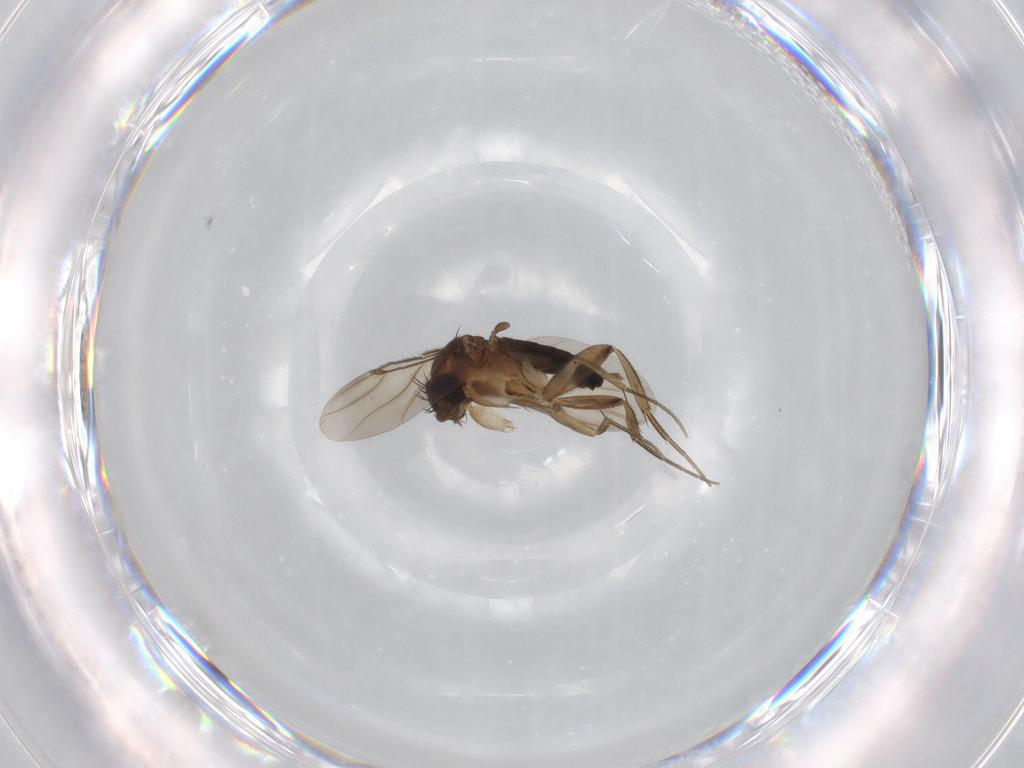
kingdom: Animalia
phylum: Arthropoda
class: Insecta
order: Diptera
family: Phoridae
